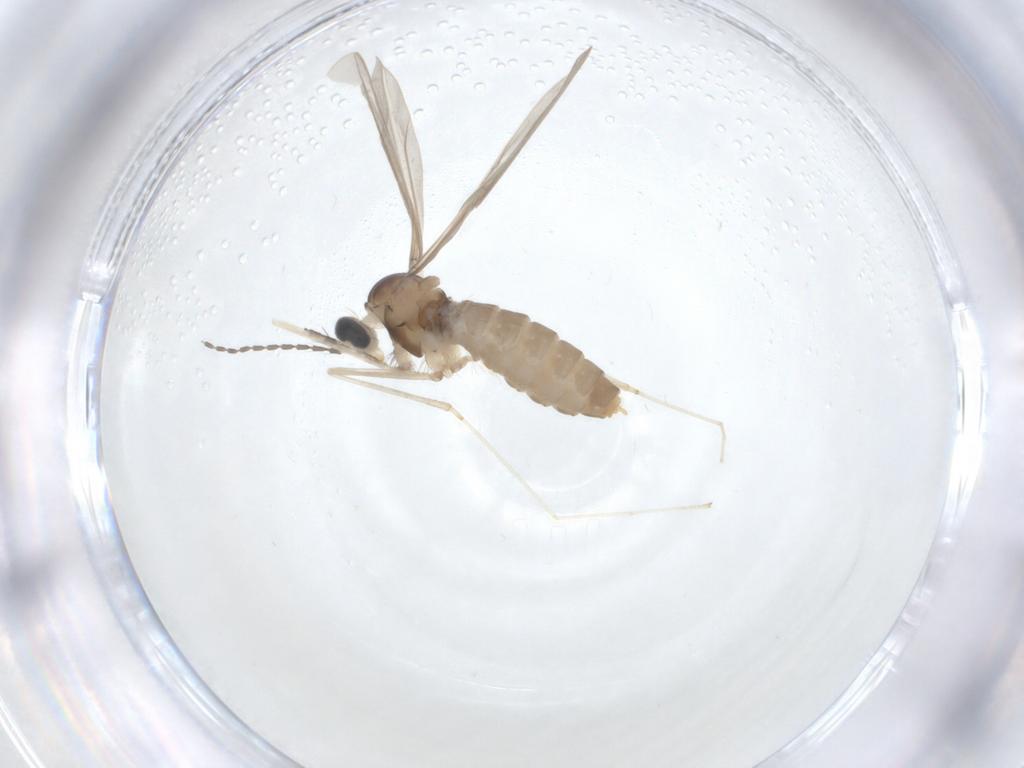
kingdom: Animalia
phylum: Arthropoda
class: Insecta
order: Diptera
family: Cecidomyiidae
